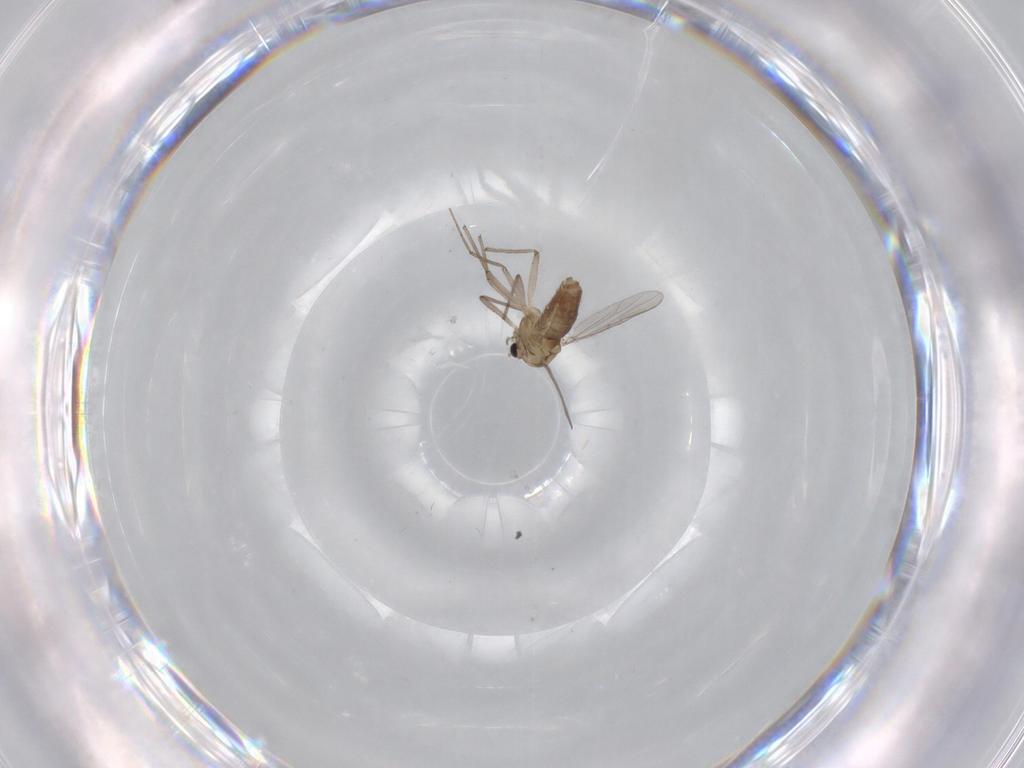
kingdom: Animalia
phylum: Arthropoda
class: Insecta
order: Diptera
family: Chironomidae
